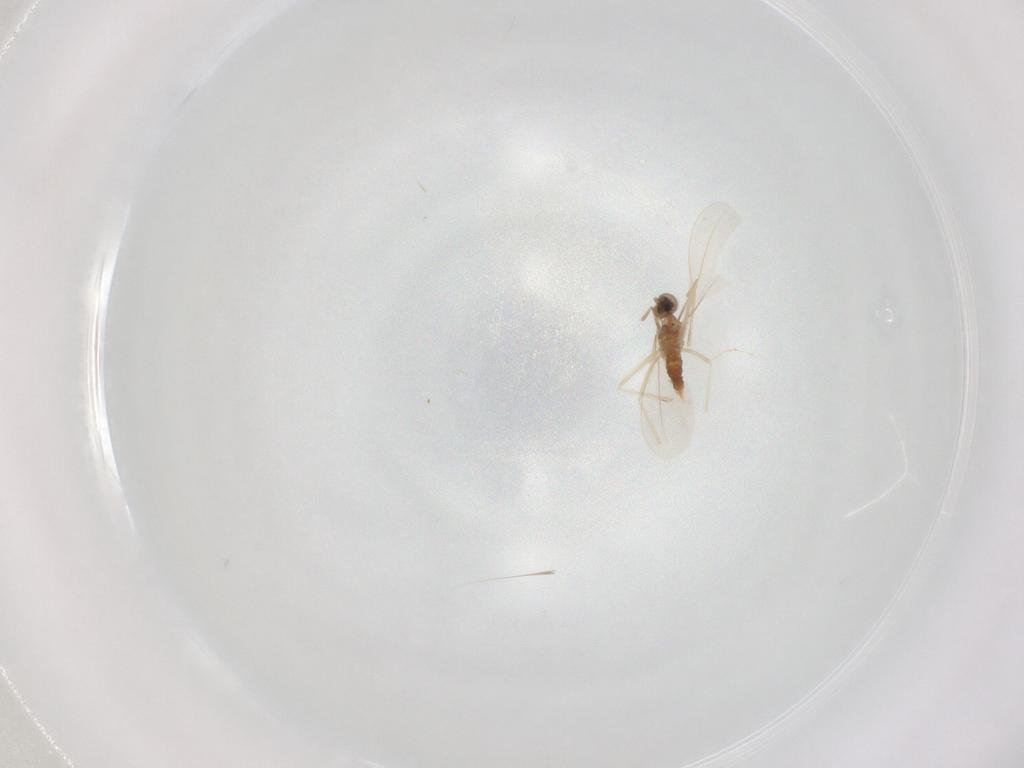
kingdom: Animalia
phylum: Arthropoda
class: Insecta
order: Diptera
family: Cecidomyiidae
